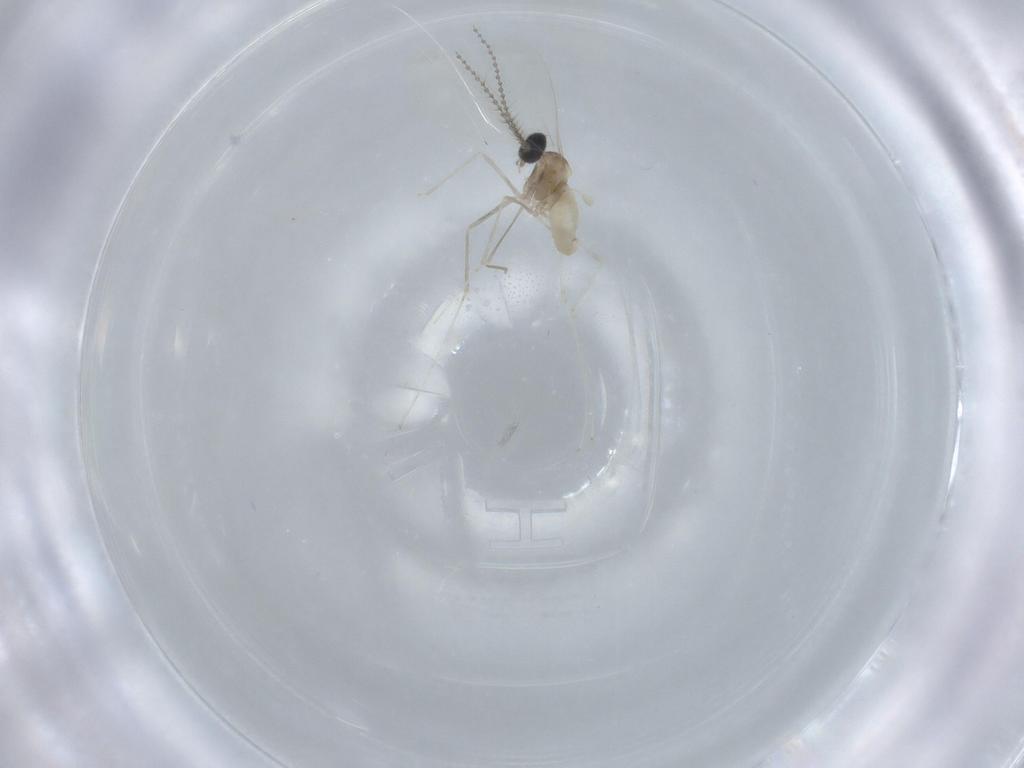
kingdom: Animalia
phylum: Arthropoda
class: Insecta
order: Diptera
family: Cecidomyiidae
